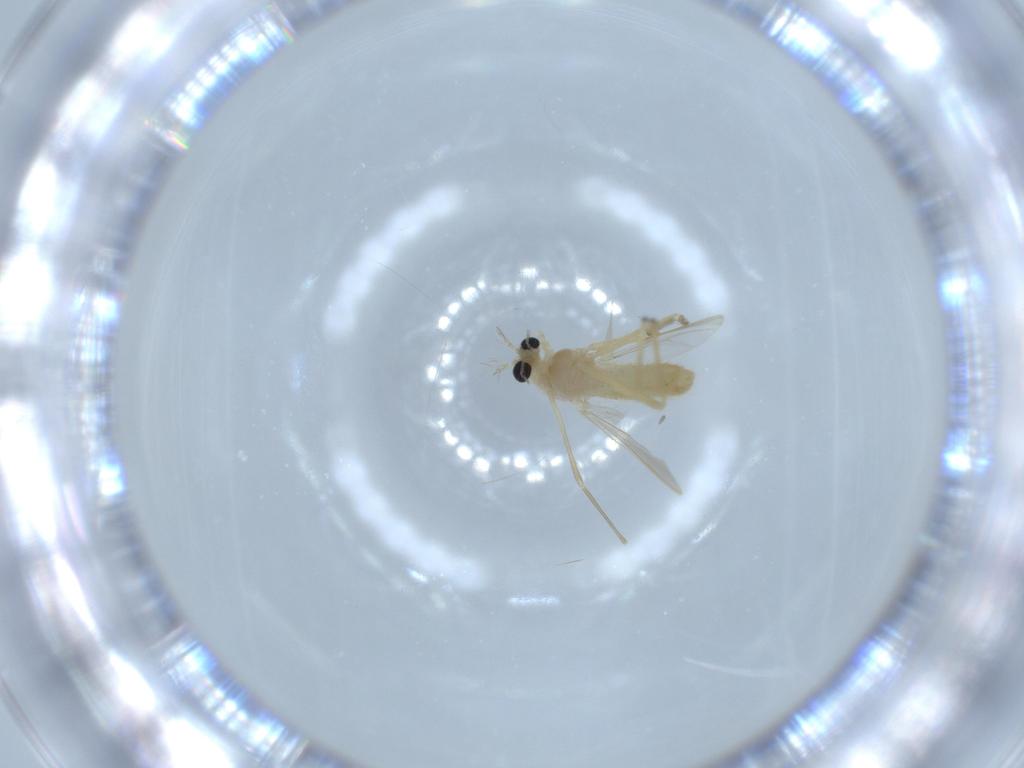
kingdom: Animalia
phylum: Arthropoda
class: Insecta
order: Diptera
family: Chironomidae
